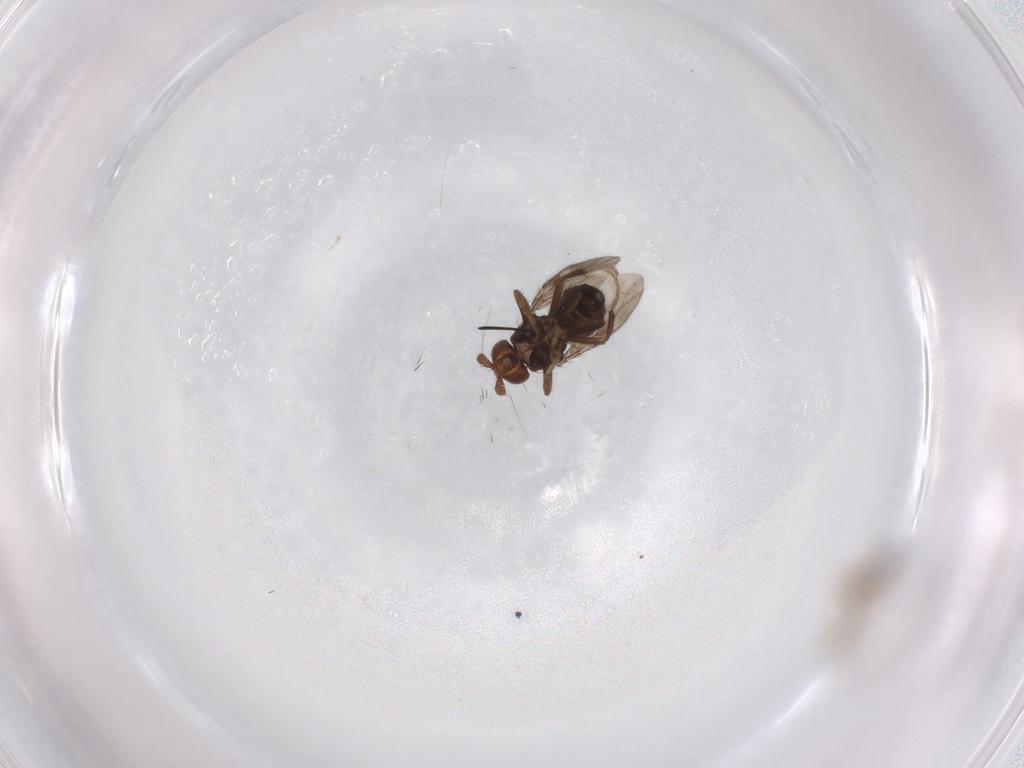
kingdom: Animalia
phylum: Arthropoda
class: Insecta
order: Diptera
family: Sphaeroceridae
